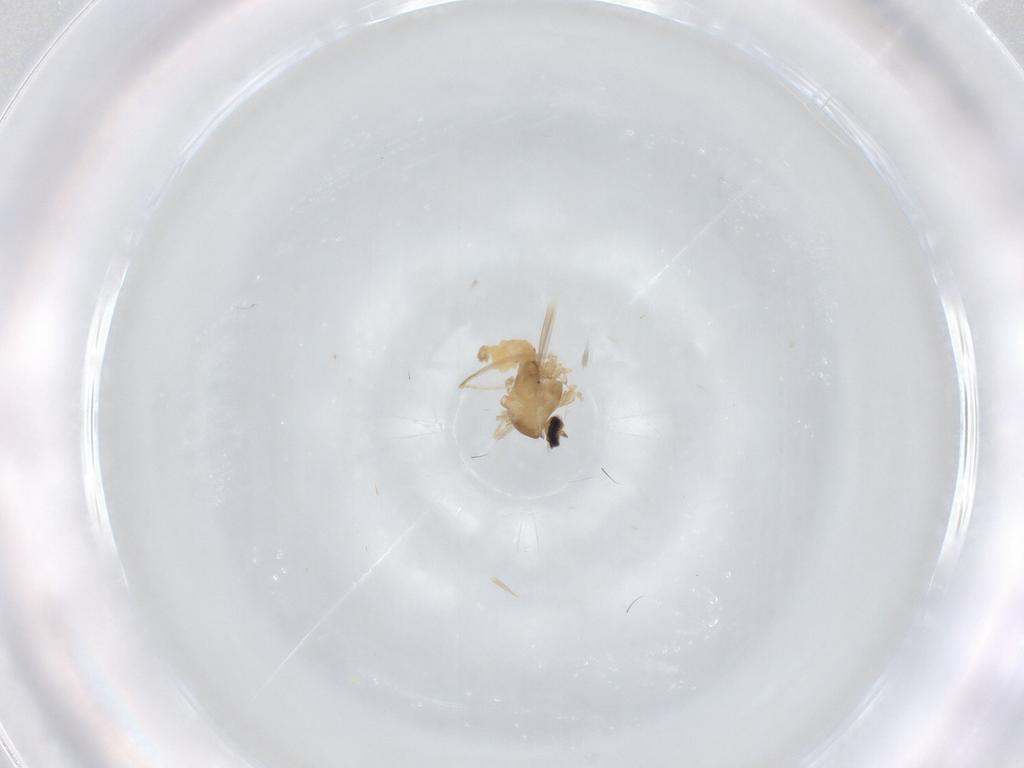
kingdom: Animalia
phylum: Arthropoda
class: Insecta
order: Diptera
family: Cecidomyiidae
